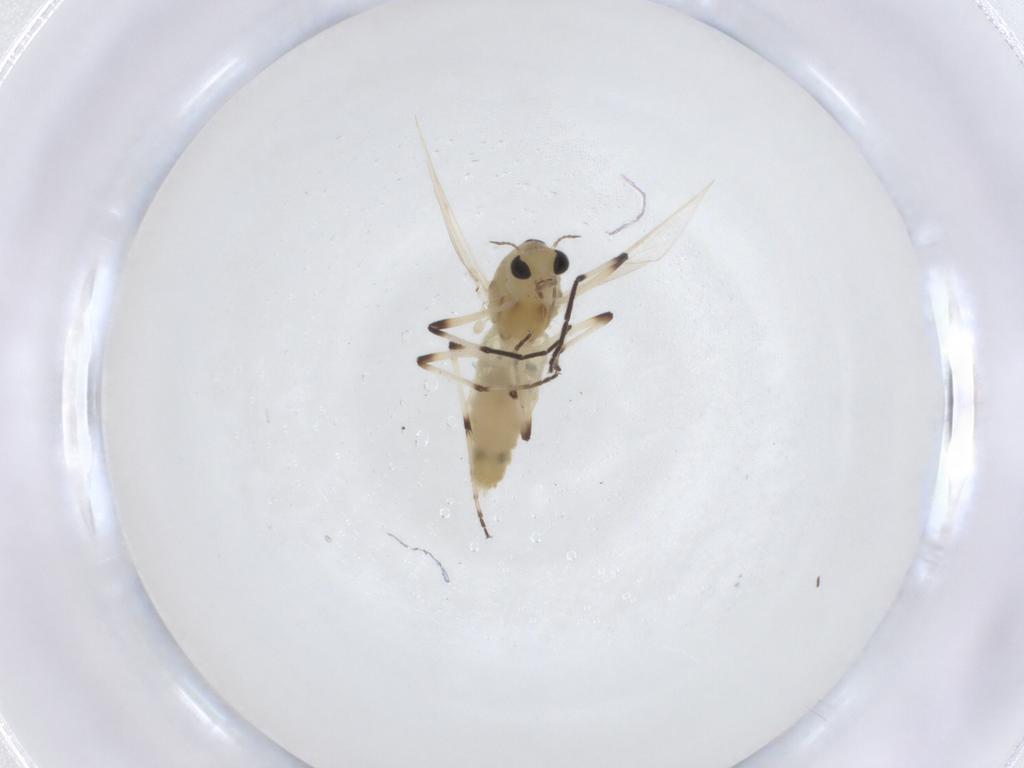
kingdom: Animalia
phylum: Arthropoda
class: Insecta
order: Diptera
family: Chironomidae
